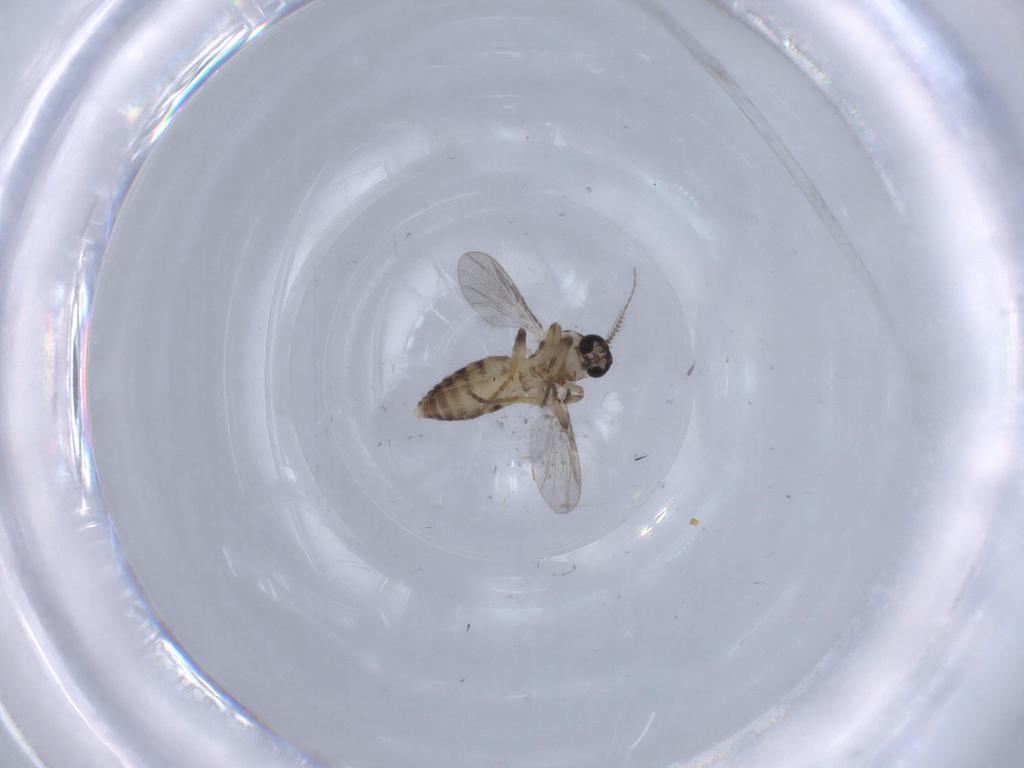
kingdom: Animalia
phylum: Arthropoda
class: Insecta
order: Diptera
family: Ceratopogonidae
